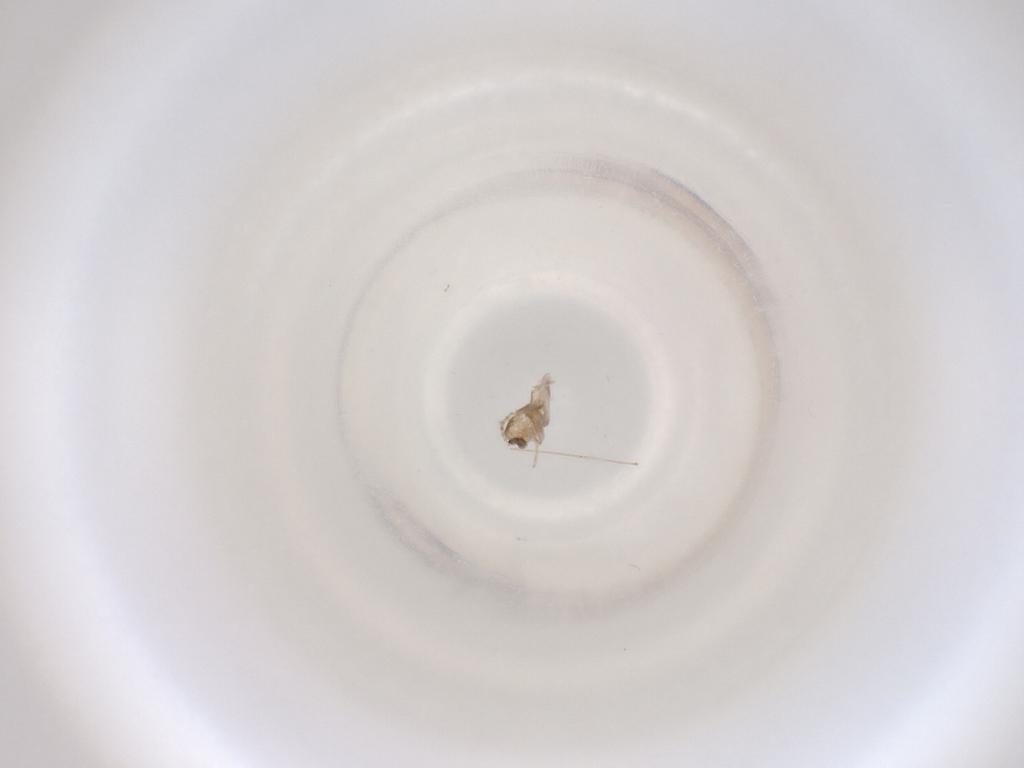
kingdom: Animalia
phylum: Arthropoda
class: Insecta
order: Diptera
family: Cecidomyiidae
